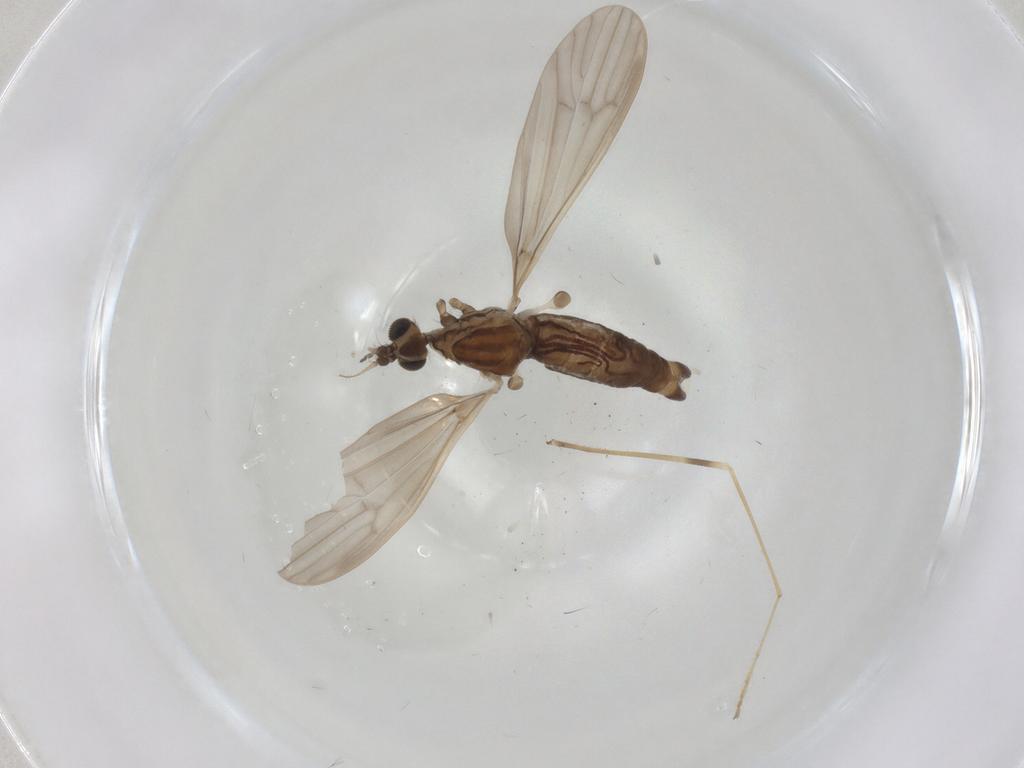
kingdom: Animalia
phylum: Arthropoda
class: Insecta
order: Diptera
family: Limoniidae
